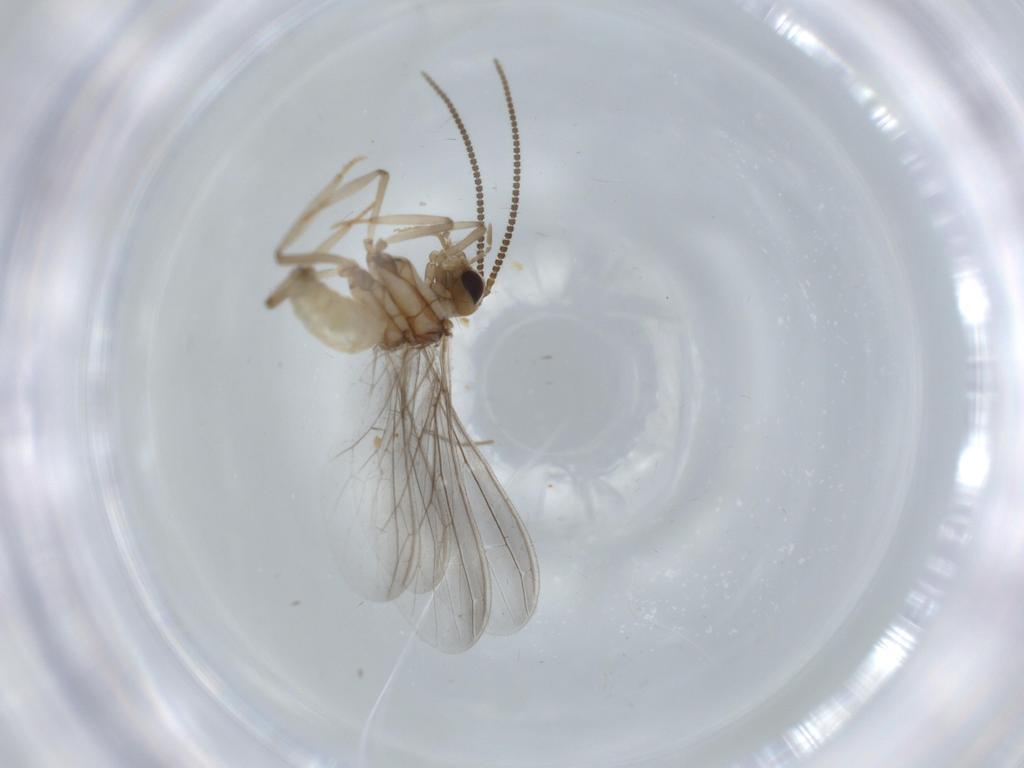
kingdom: Animalia
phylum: Arthropoda
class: Insecta
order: Neuroptera
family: Coniopterygidae
